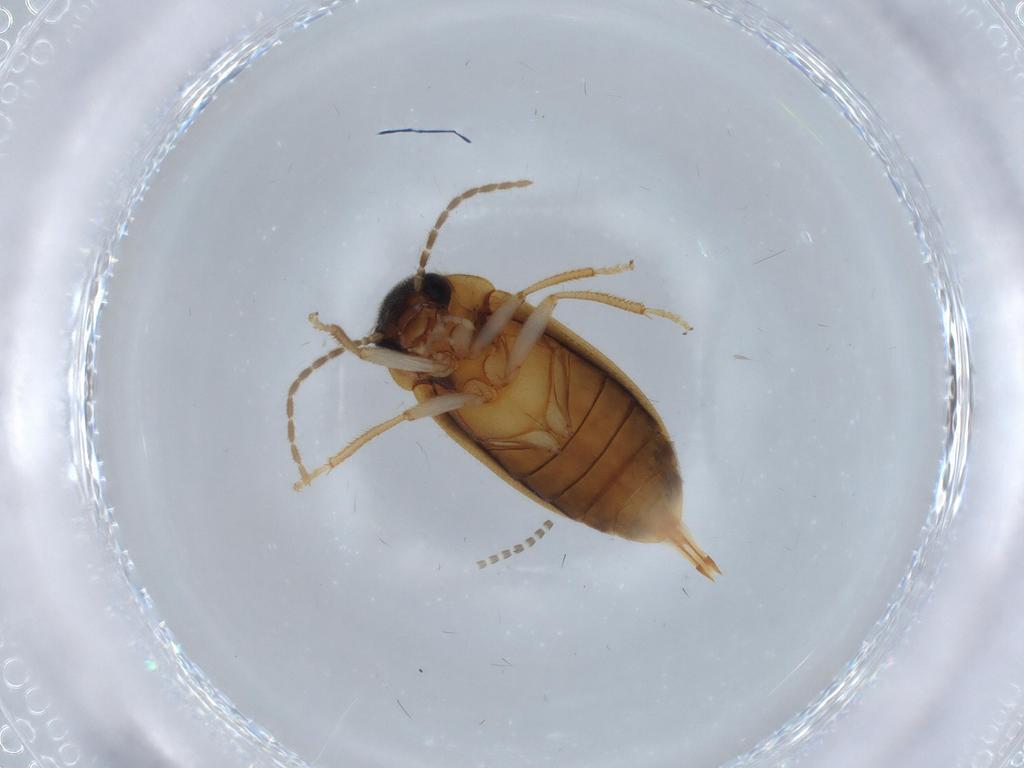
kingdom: Animalia
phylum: Arthropoda
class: Insecta
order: Coleoptera
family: Ptilodactylidae
